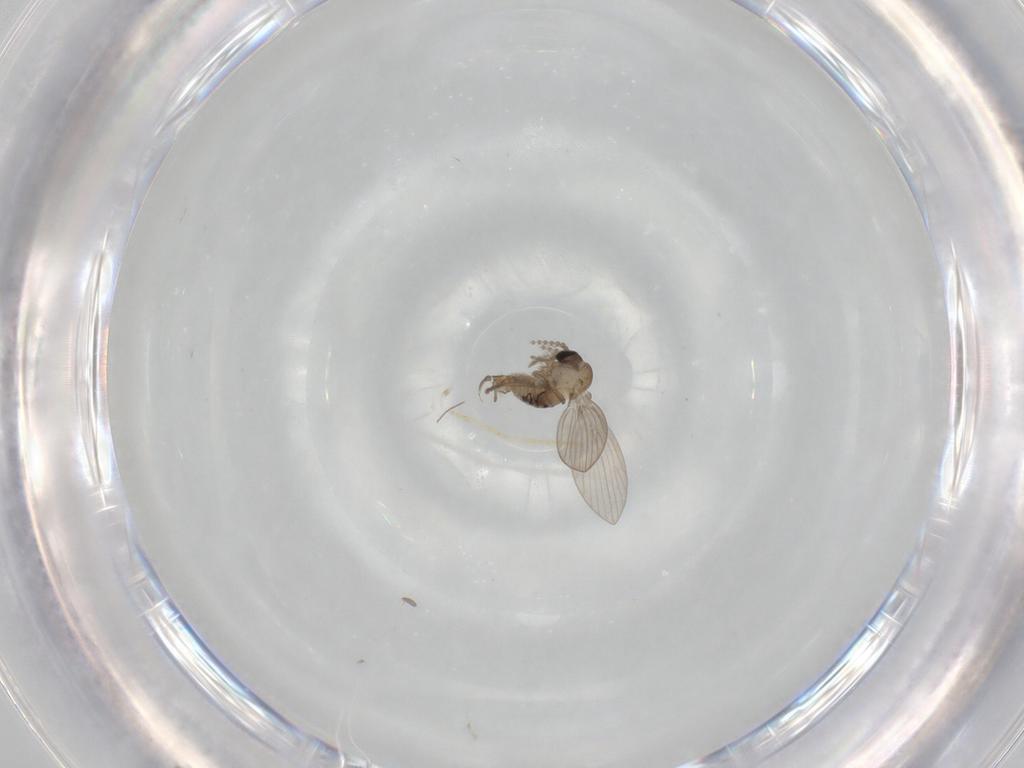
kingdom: Animalia
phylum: Arthropoda
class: Insecta
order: Diptera
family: Psychodidae
